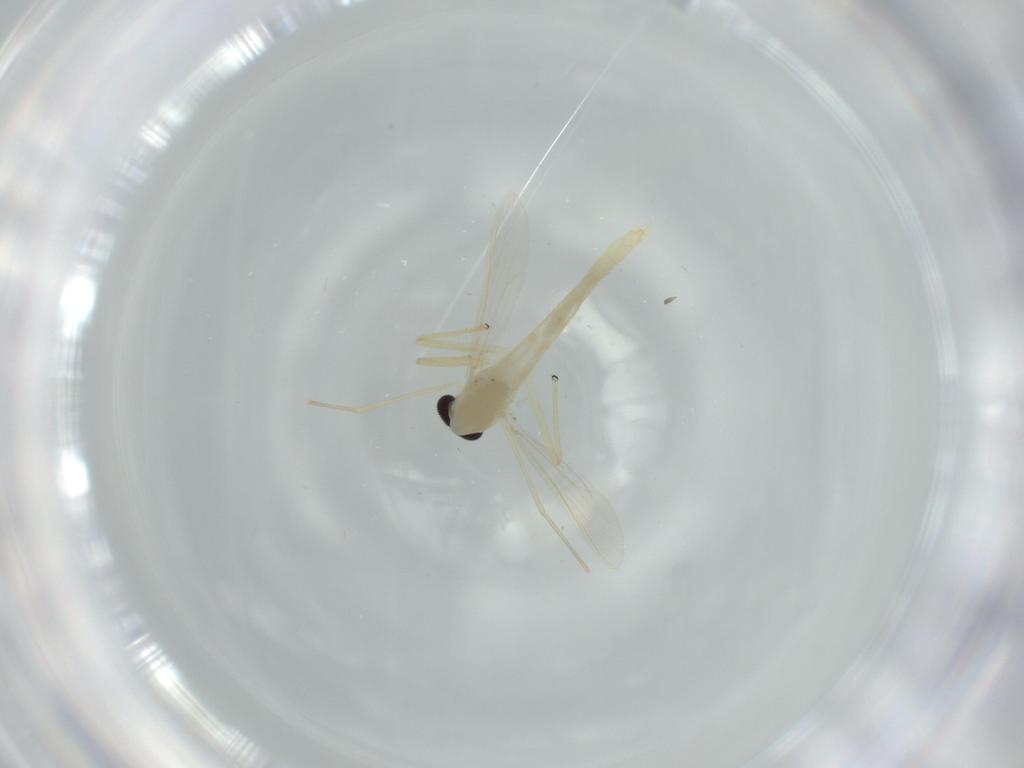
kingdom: Animalia
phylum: Arthropoda
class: Insecta
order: Diptera
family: Chironomidae
